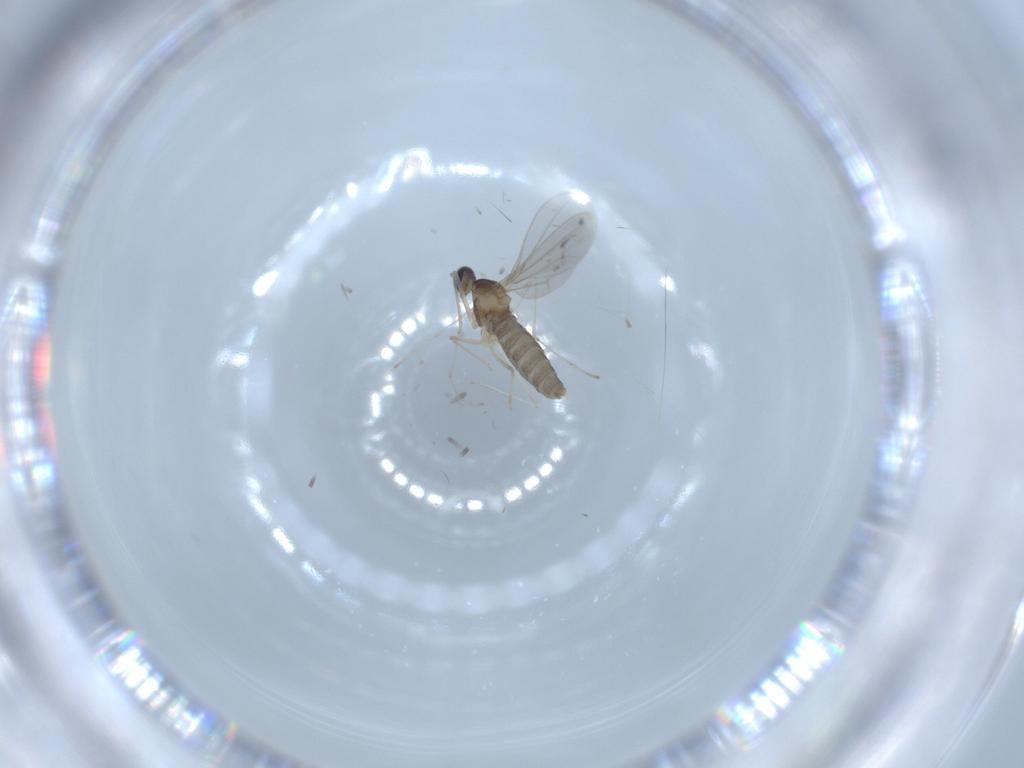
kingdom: Animalia
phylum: Arthropoda
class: Insecta
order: Diptera
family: Cecidomyiidae
